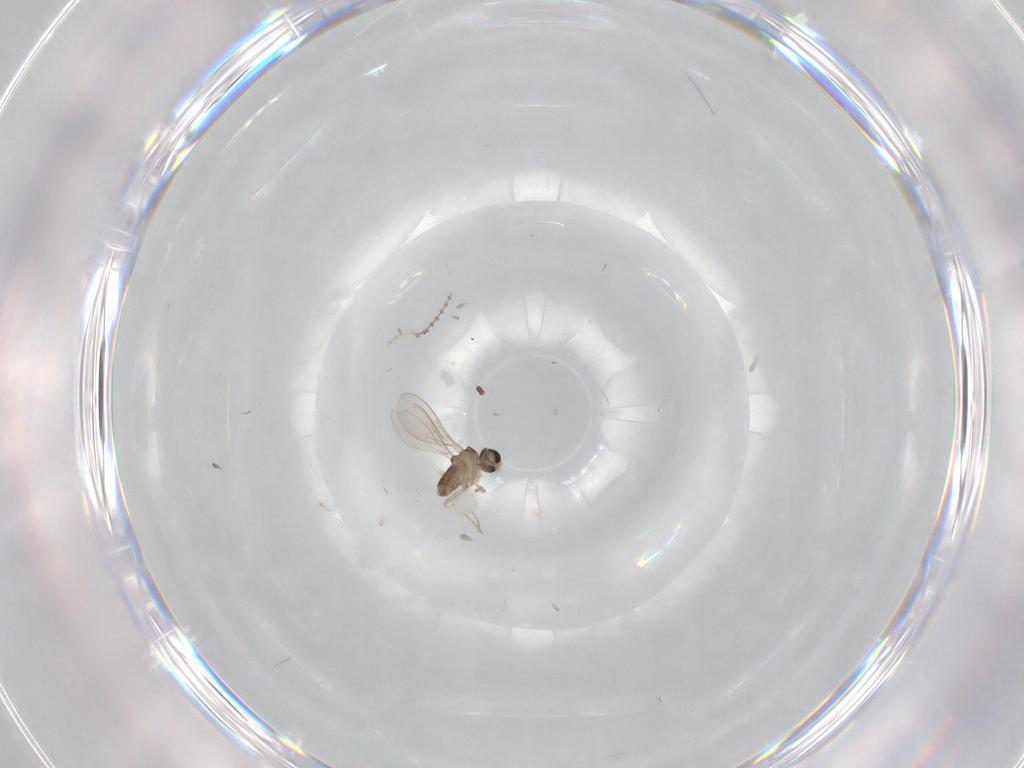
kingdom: Animalia
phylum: Arthropoda
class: Insecta
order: Diptera
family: Cecidomyiidae
